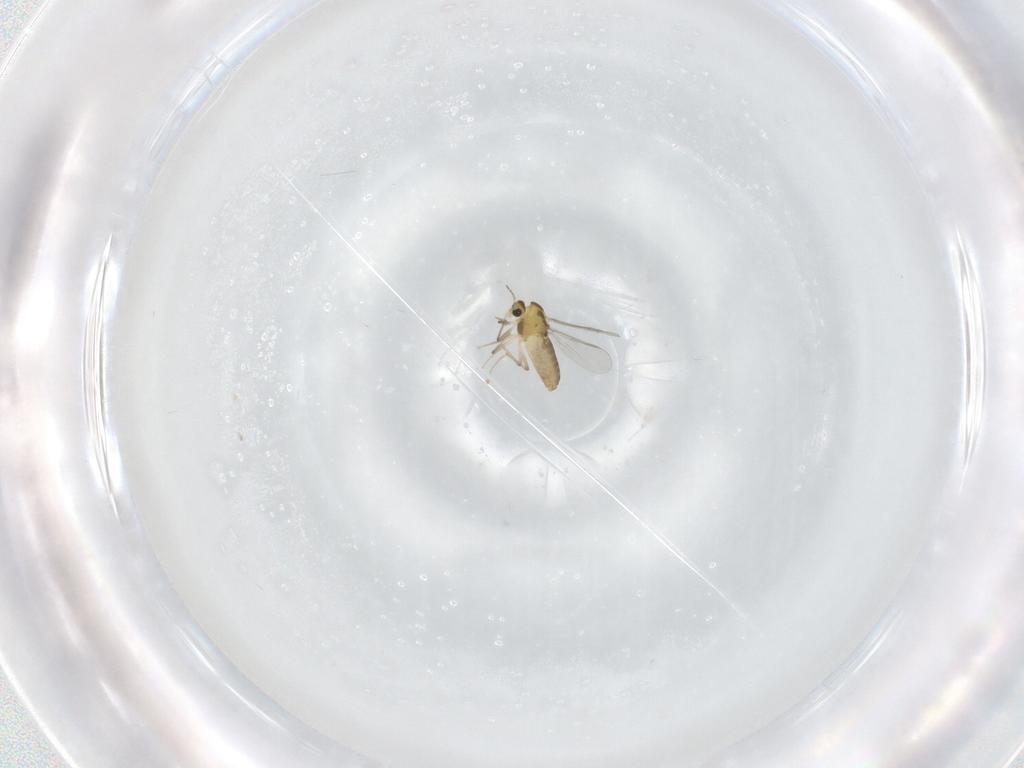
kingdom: Animalia
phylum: Arthropoda
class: Insecta
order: Diptera
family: Chironomidae
